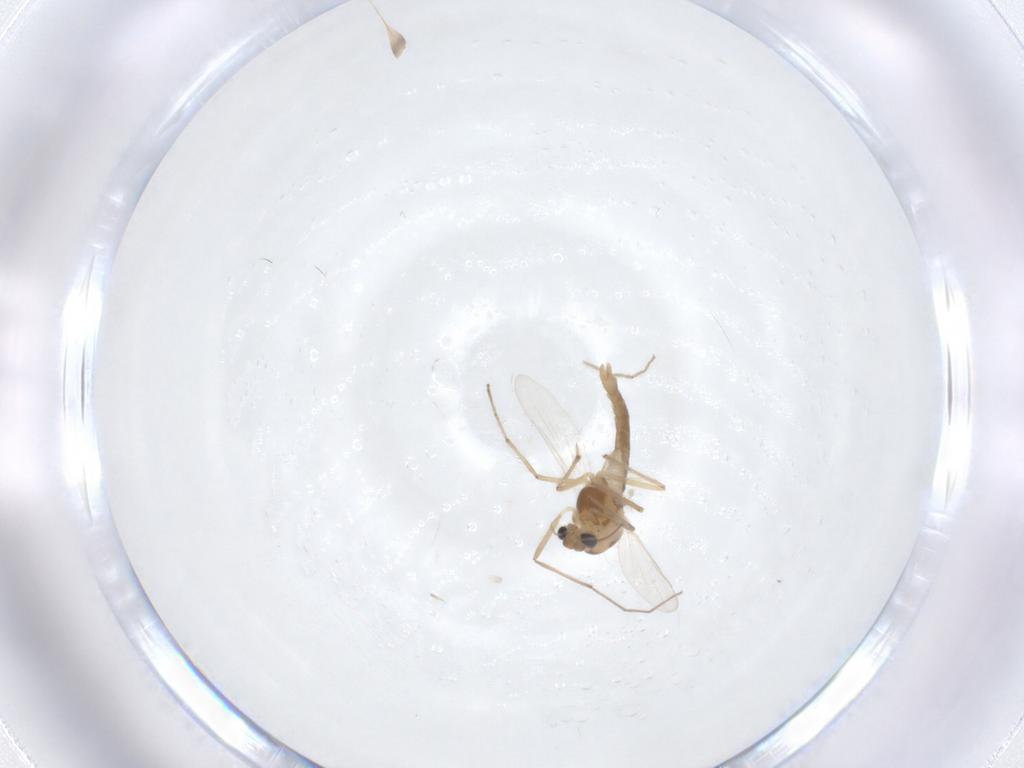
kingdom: Animalia
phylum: Arthropoda
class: Insecta
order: Diptera
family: Chironomidae
